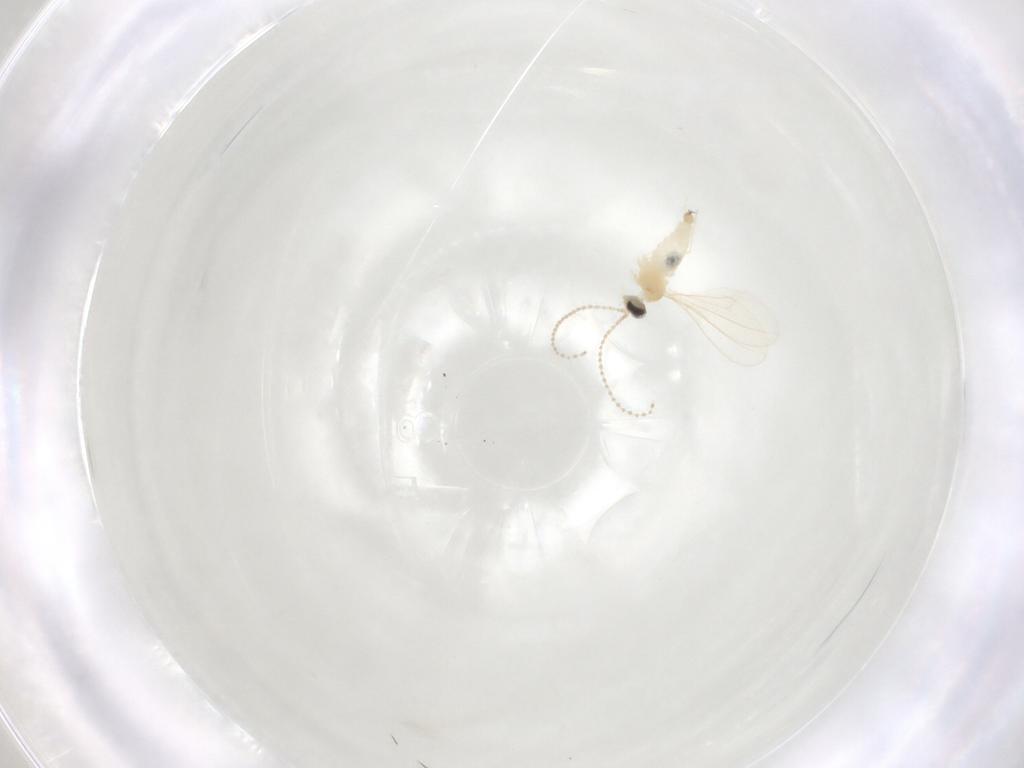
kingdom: Animalia
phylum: Arthropoda
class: Insecta
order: Diptera
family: Cecidomyiidae
